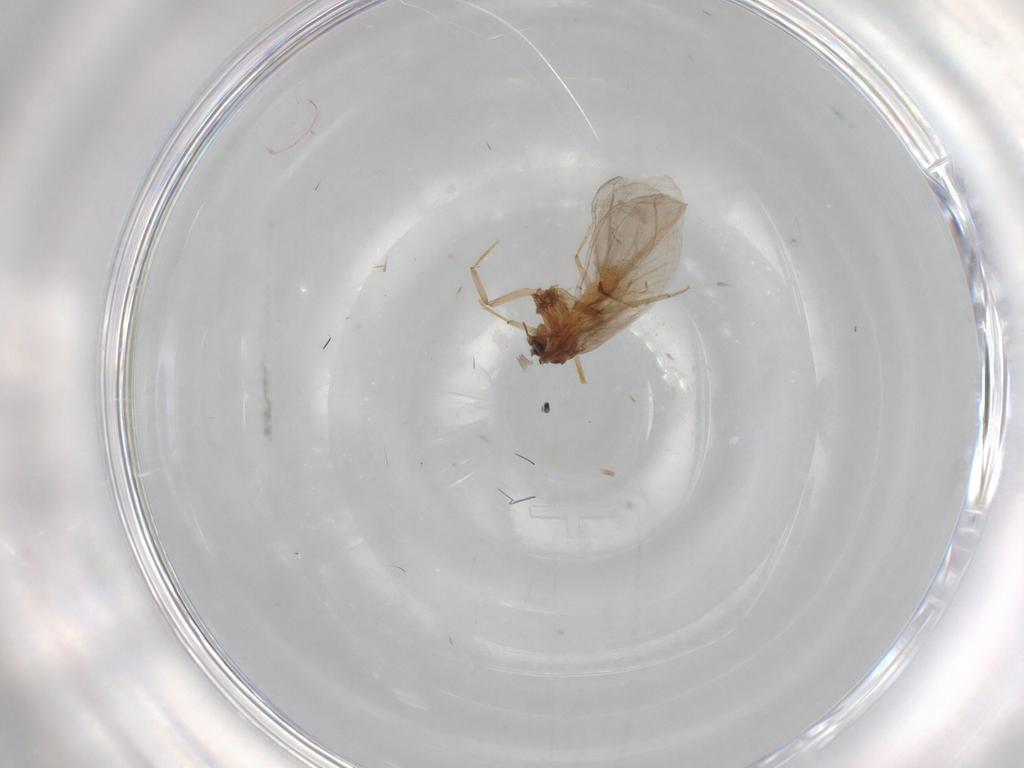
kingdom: Animalia
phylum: Arthropoda
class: Insecta
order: Neuroptera
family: Coniopterygidae
